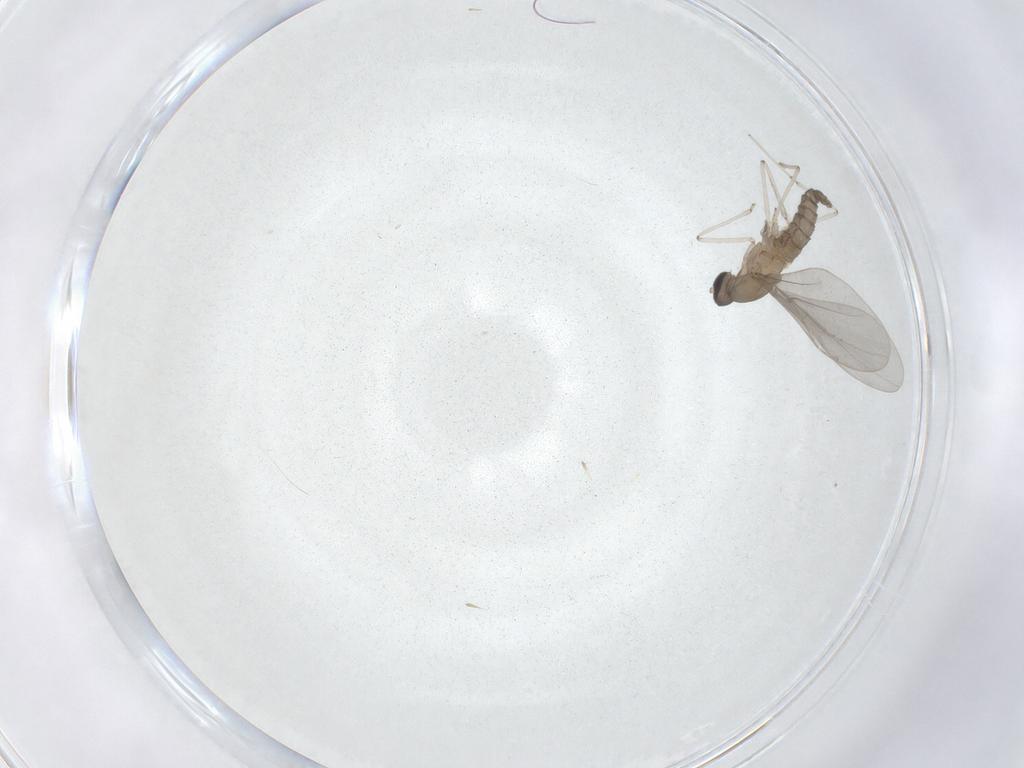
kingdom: Animalia
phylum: Arthropoda
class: Insecta
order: Diptera
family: Cecidomyiidae
